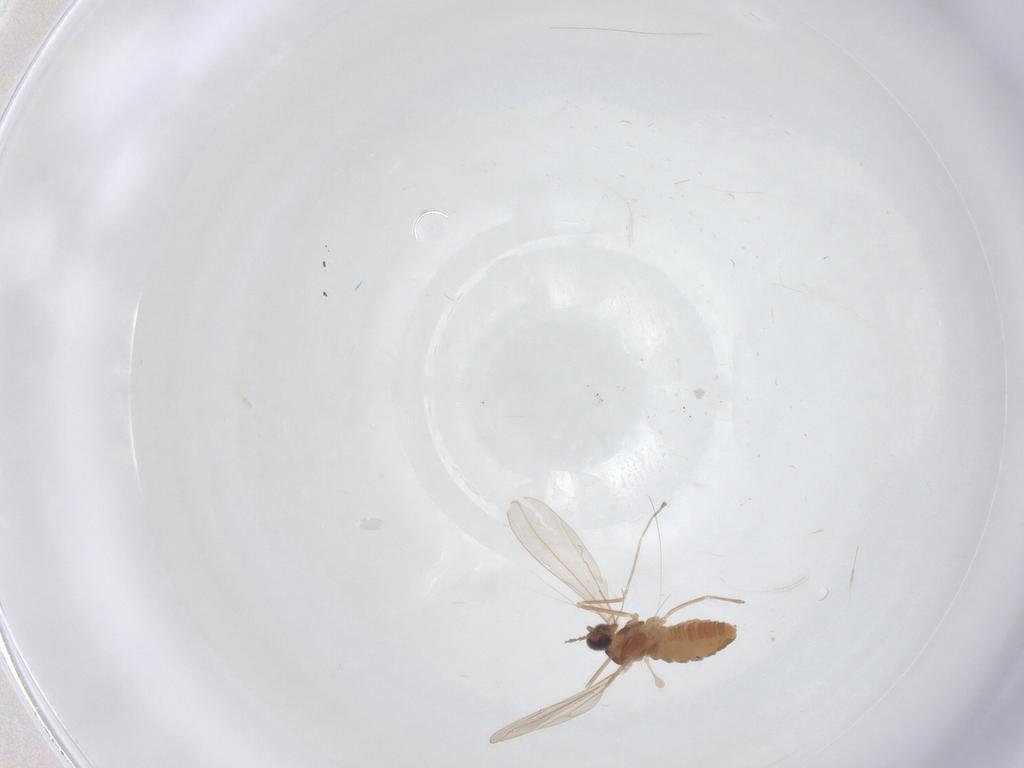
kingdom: Animalia
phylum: Arthropoda
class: Insecta
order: Diptera
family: Cecidomyiidae
